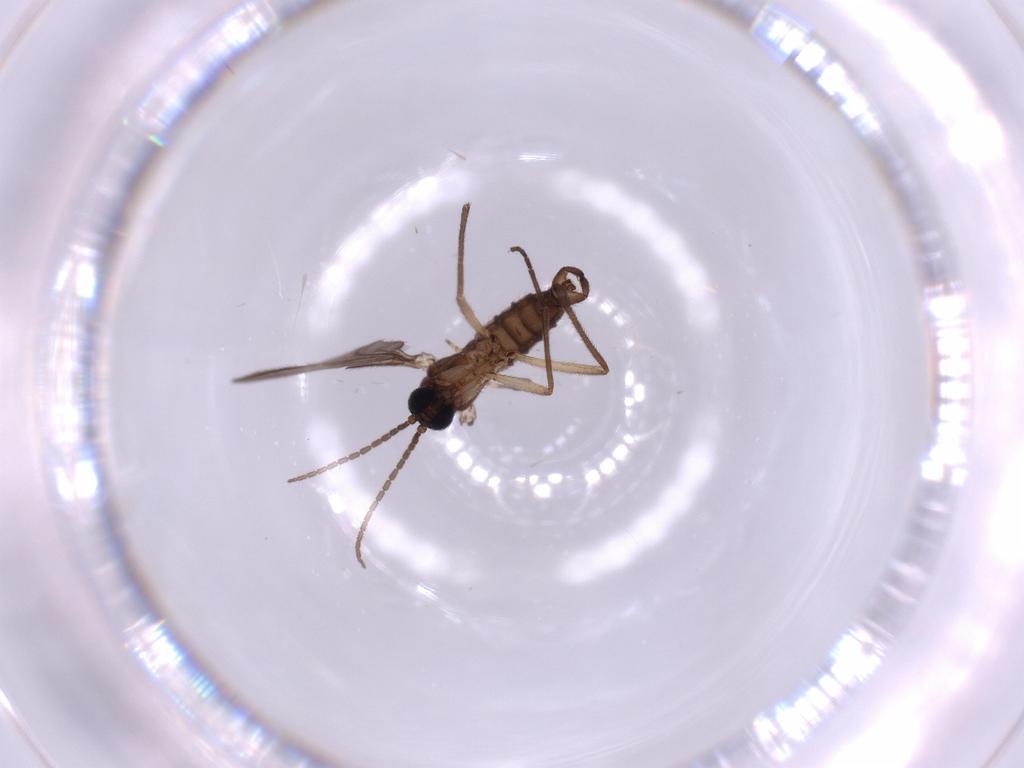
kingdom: Animalia
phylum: Arthropoda
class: Insecta
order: Diptera
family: Sciaridae
